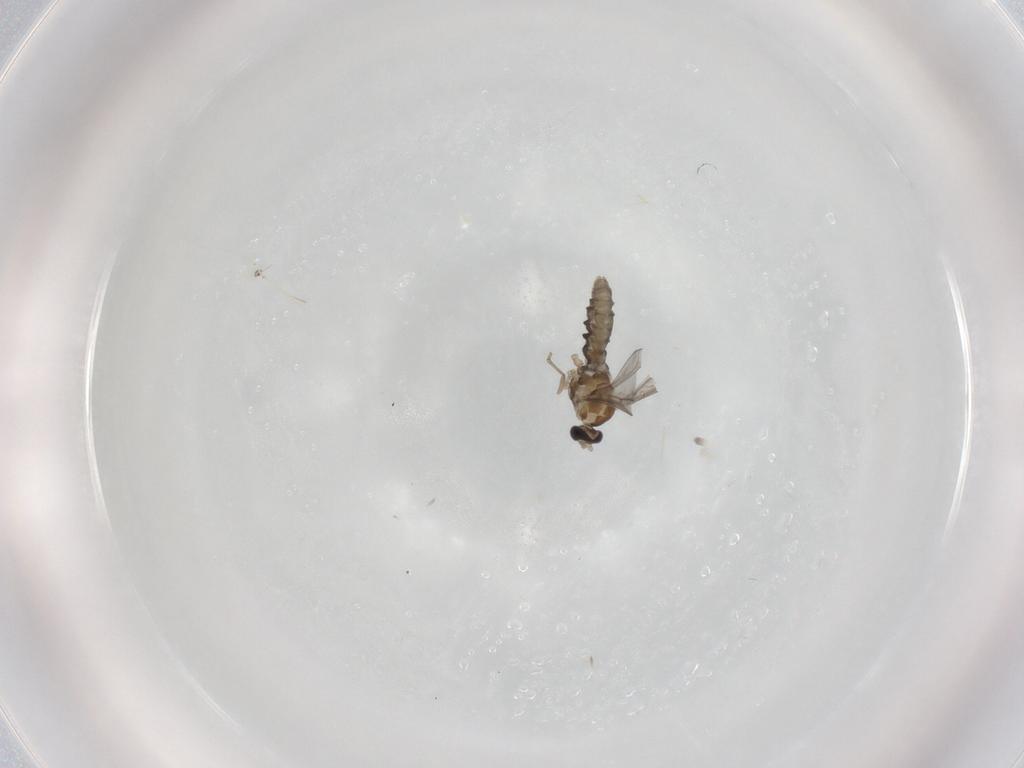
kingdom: Animalia
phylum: Arthropoda
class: Insecta
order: Diptera
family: Cecidomyiidae
